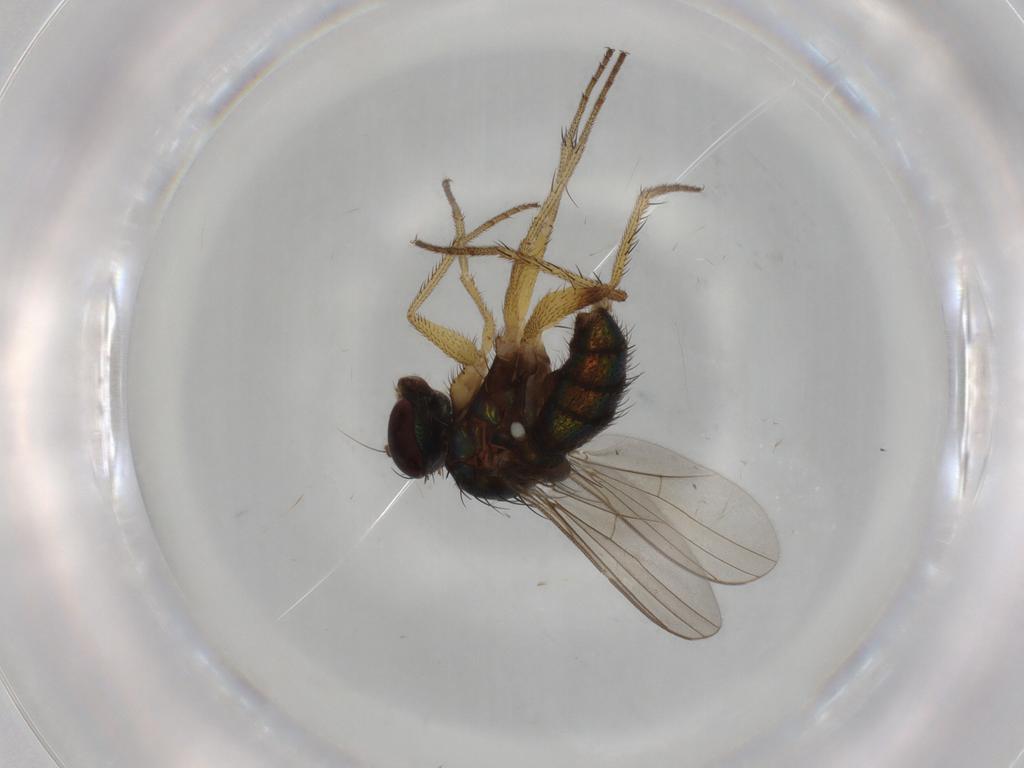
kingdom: Animalia
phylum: Arthropoda
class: Insecta
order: Diptera
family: Dolichopodidae
